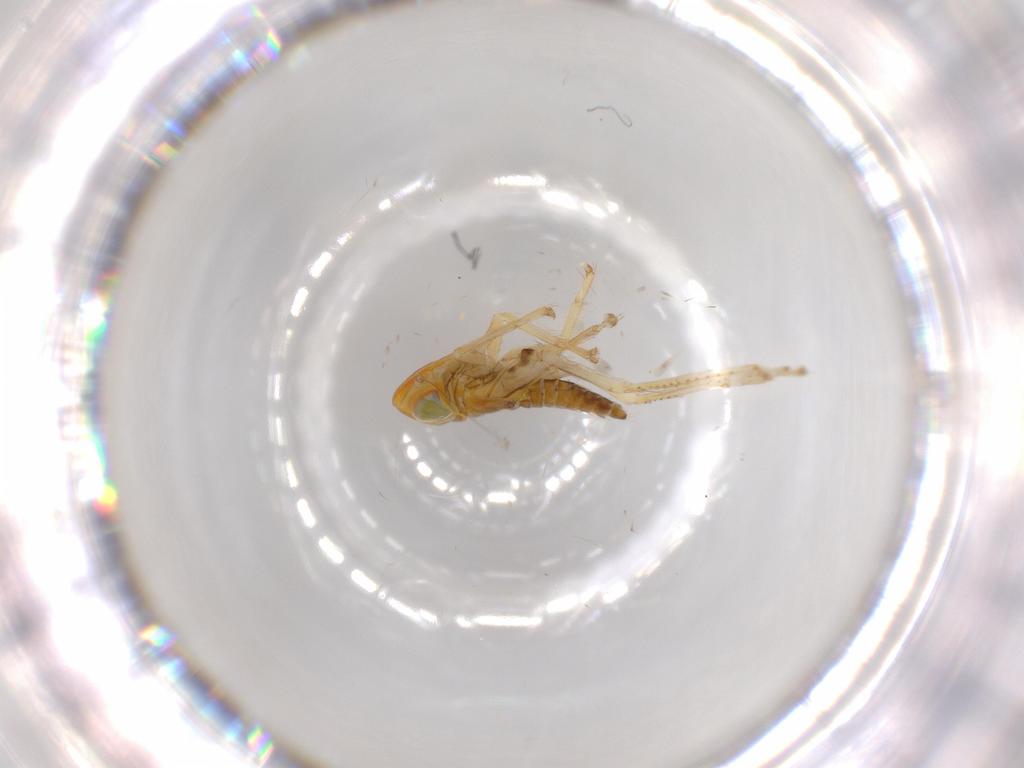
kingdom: Animalia
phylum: Arthropoda
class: Insecta
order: Hemiptera
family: Cicadellidae
